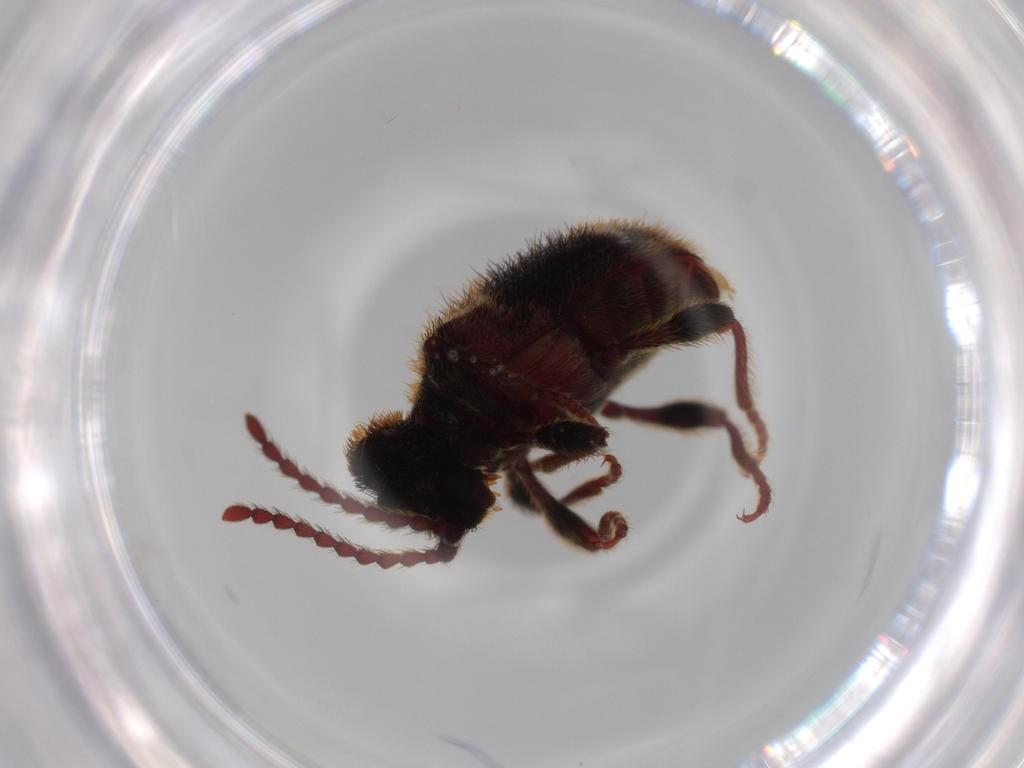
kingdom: Animalia
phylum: Arthropoda
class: Insecta
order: Coleoptera
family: Ptinidae
